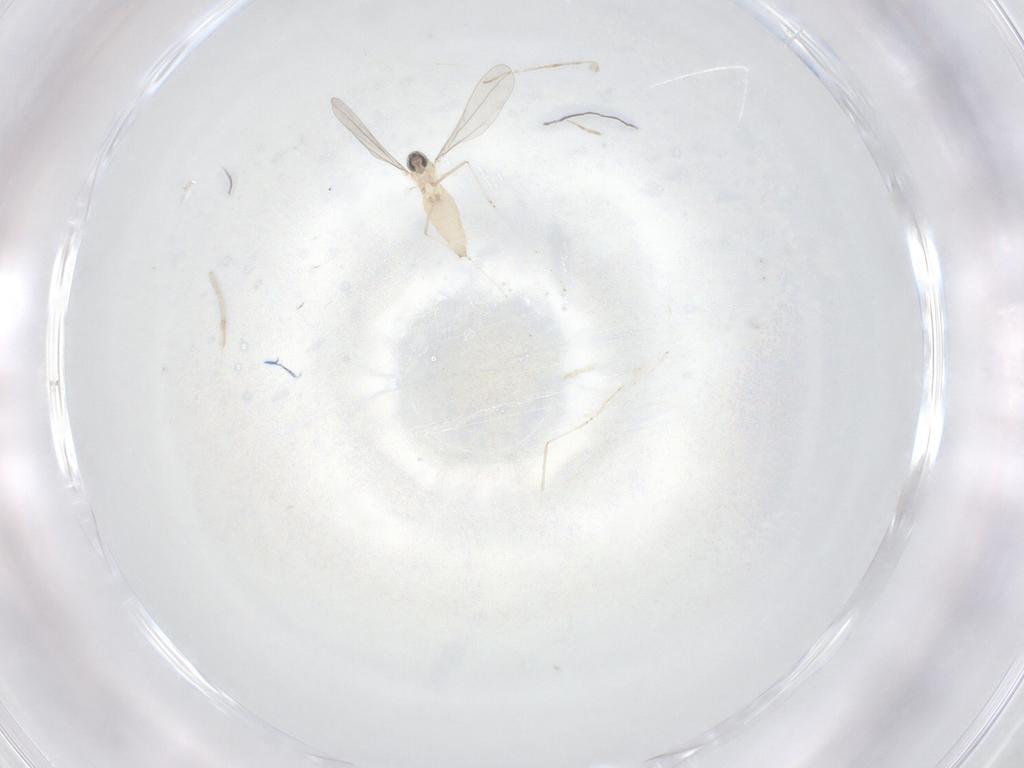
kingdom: Animalia
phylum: Arthropoda
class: Insecta
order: Diptera
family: Cecidomyiidae
